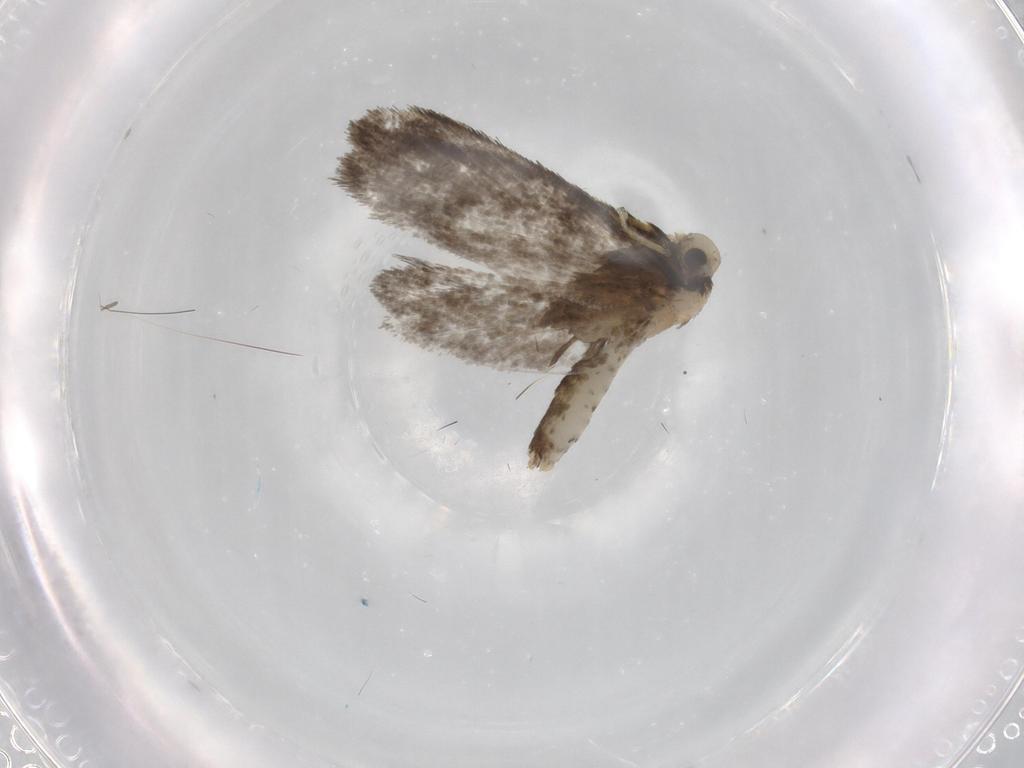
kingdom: Animalia
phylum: Arthropoda
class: Insecta
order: Lepidoptera
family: Psychidae
